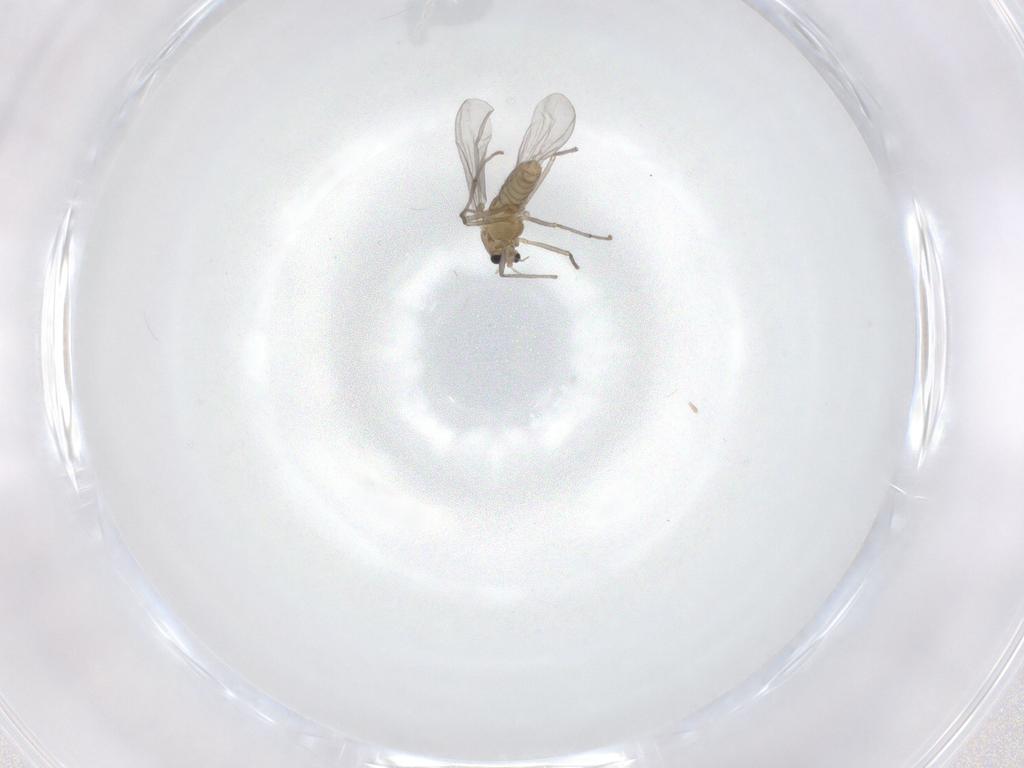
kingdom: Animalia
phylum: Arthropoda
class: Insecta
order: Diptera
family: Chironomidae
